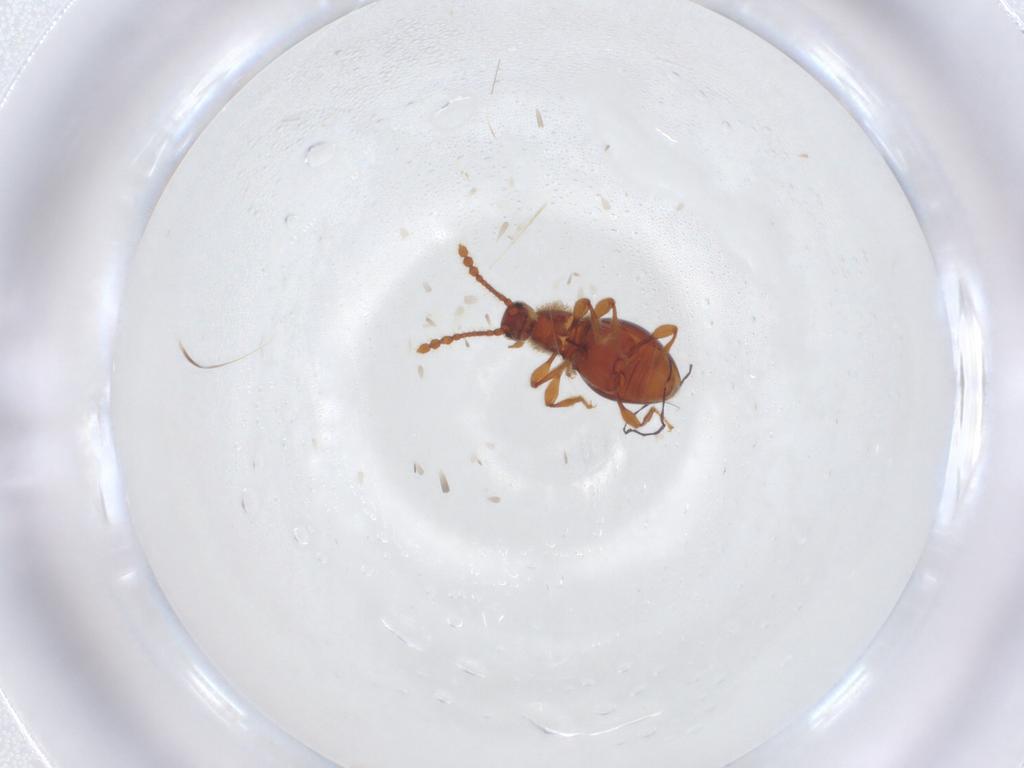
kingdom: Animalia
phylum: Arthropoda
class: Insecta
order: Coleoptera
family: Staphylinidae
